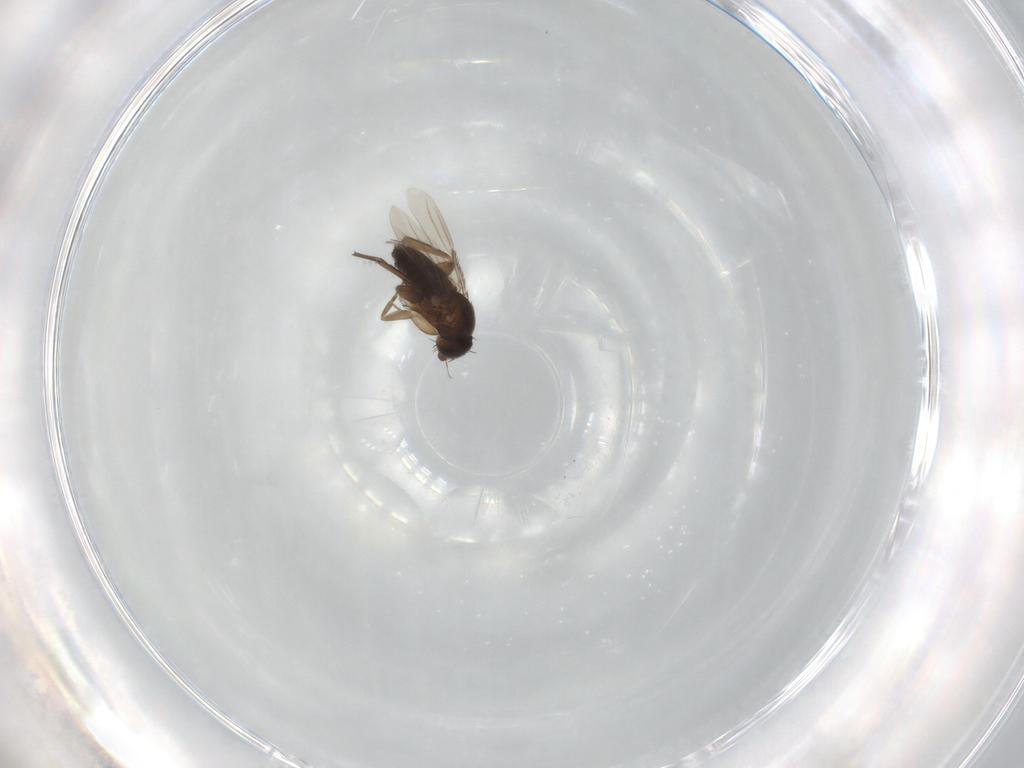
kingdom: Animalia
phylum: Arthropoda
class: Insecta
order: Diptera
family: Phoridae
